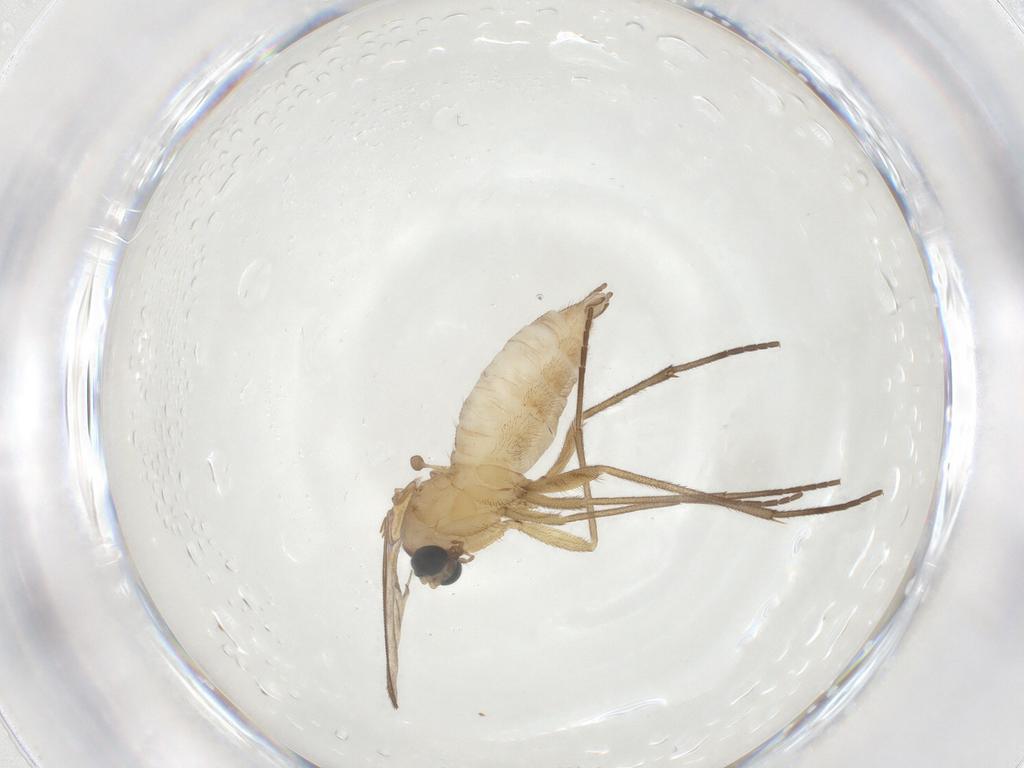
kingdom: Animalia
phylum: Arthropoda
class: Insecta
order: Diptera
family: Sciaridae
